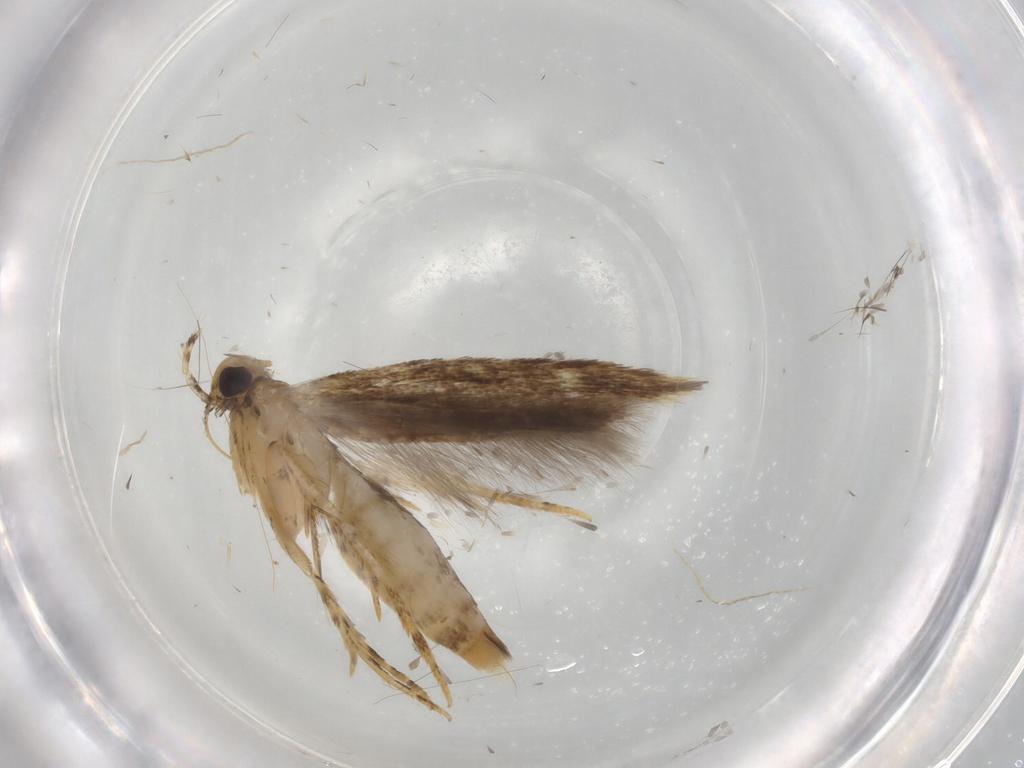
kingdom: Animalia
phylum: Arthropoda
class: Insecta
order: Lepidoptera
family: Gelechiidae
